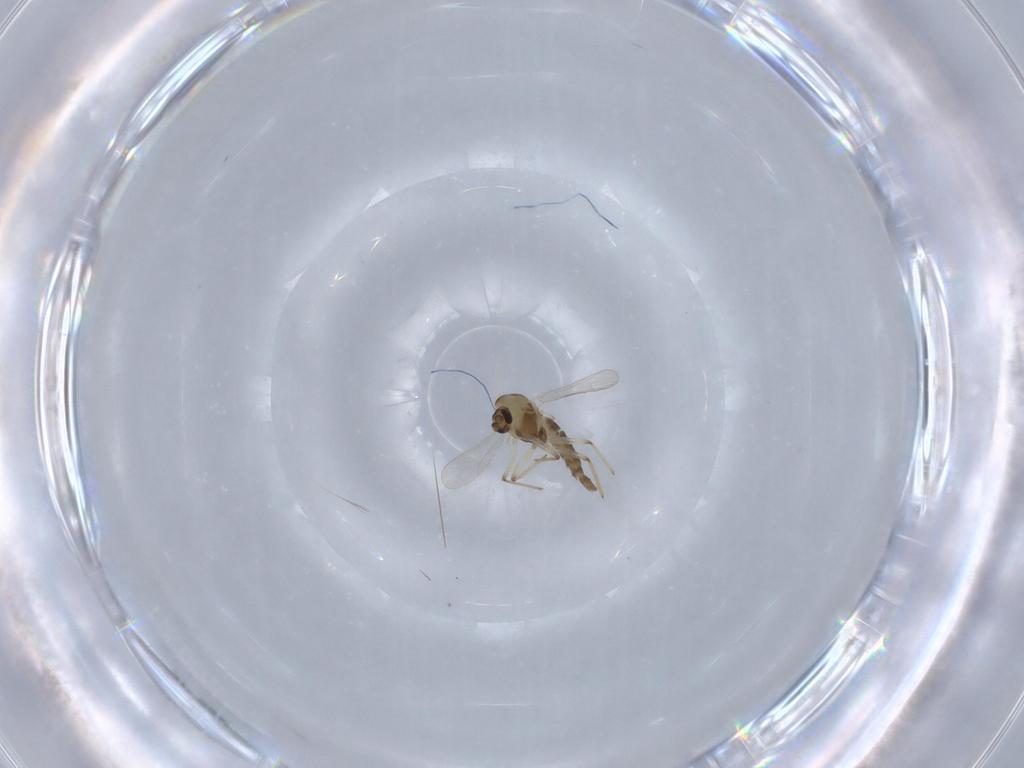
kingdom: Animalia
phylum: Arthropoda
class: Insecta
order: Diptera
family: Chironomidae
